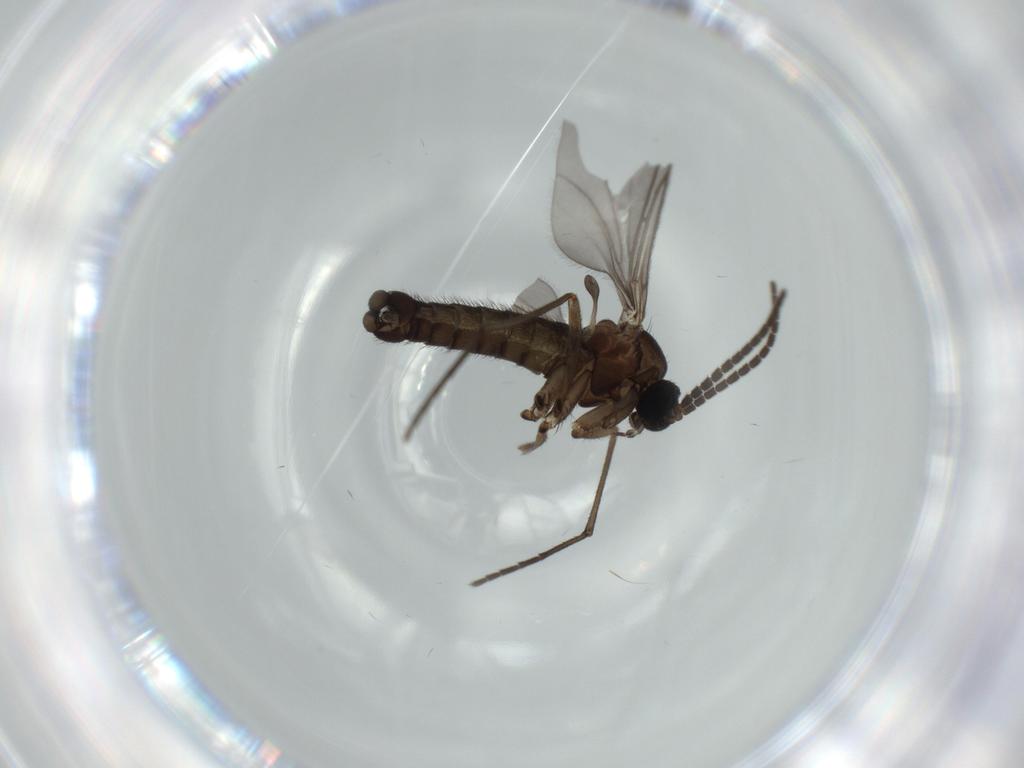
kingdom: Animalia
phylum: Arthropoda
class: Insecta
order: Diptera
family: Sciaridae
